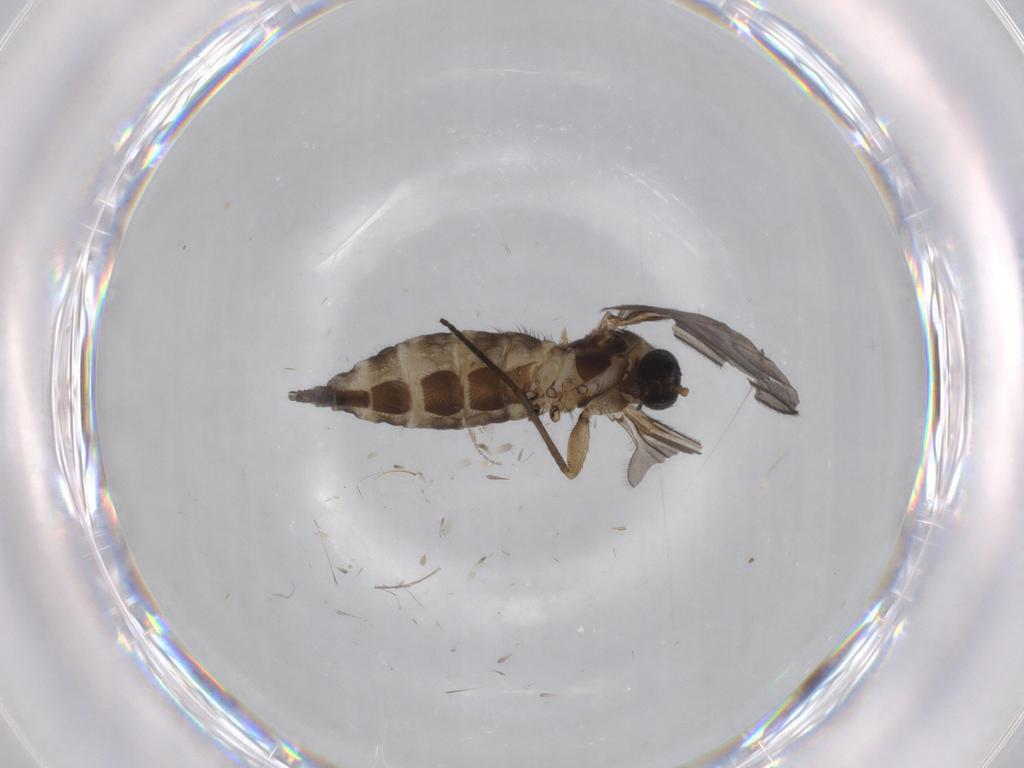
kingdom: Animalia
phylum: Arthropoda
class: Insecta
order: Diptera
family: Sciaridae
